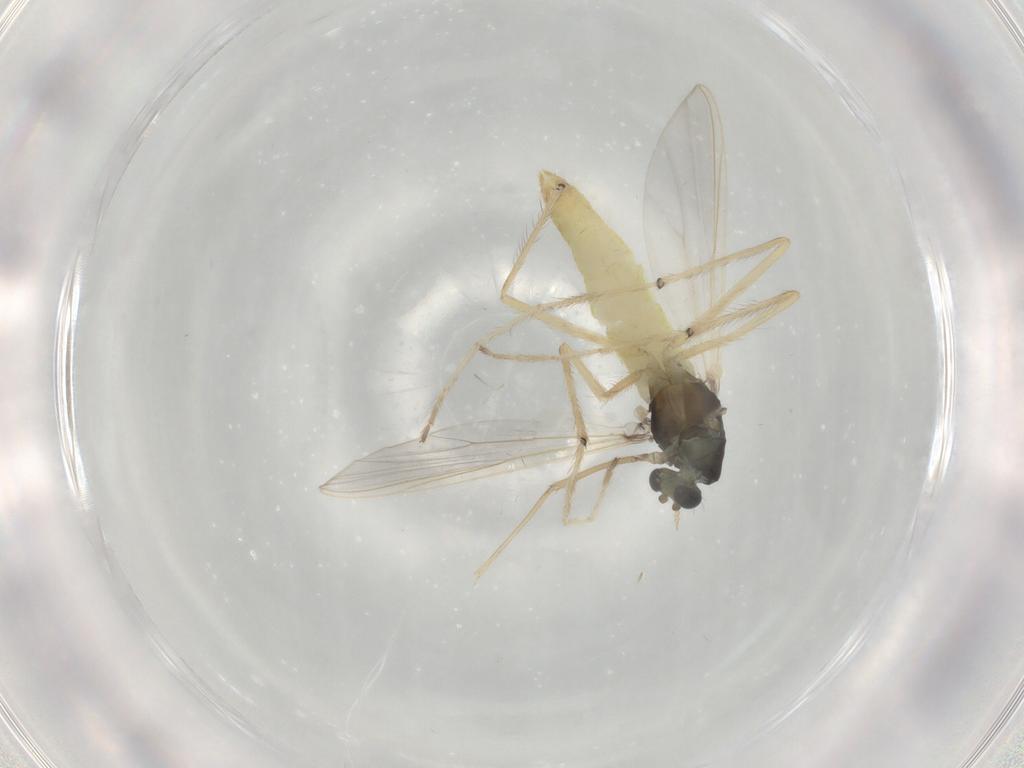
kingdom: Animalia
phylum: Arthropoda
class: Insecta
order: Diptera
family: Chironomidae
